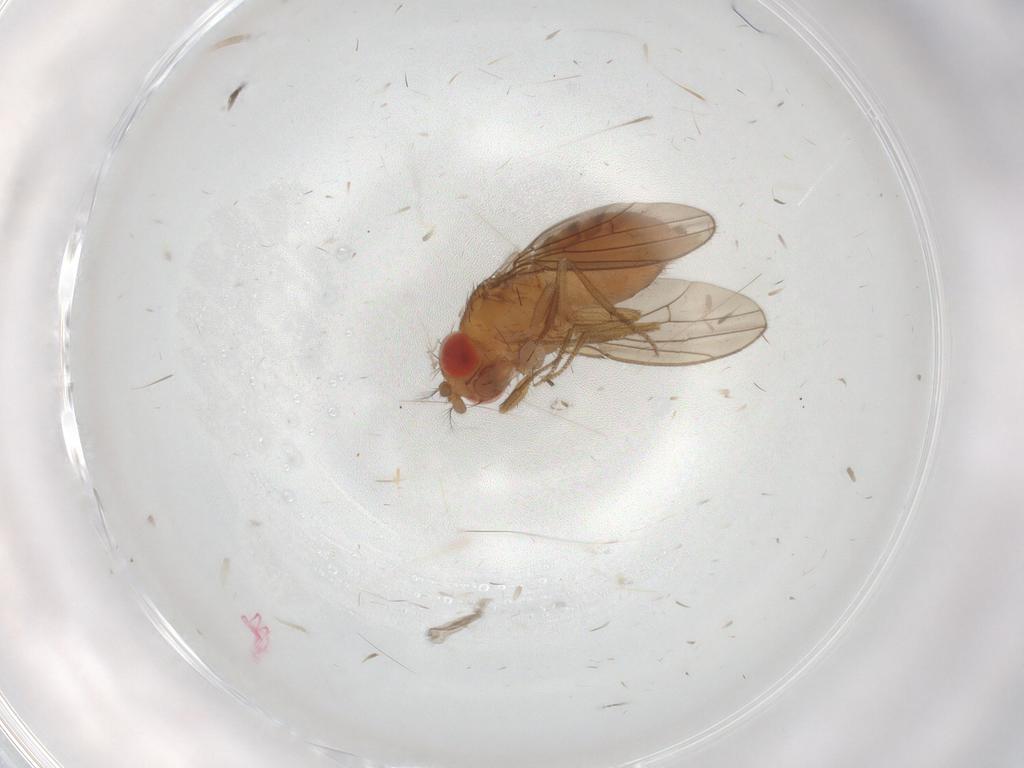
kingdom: Animalia
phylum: Arthropoda
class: Insecta
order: Diptera
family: Drosophilidae
